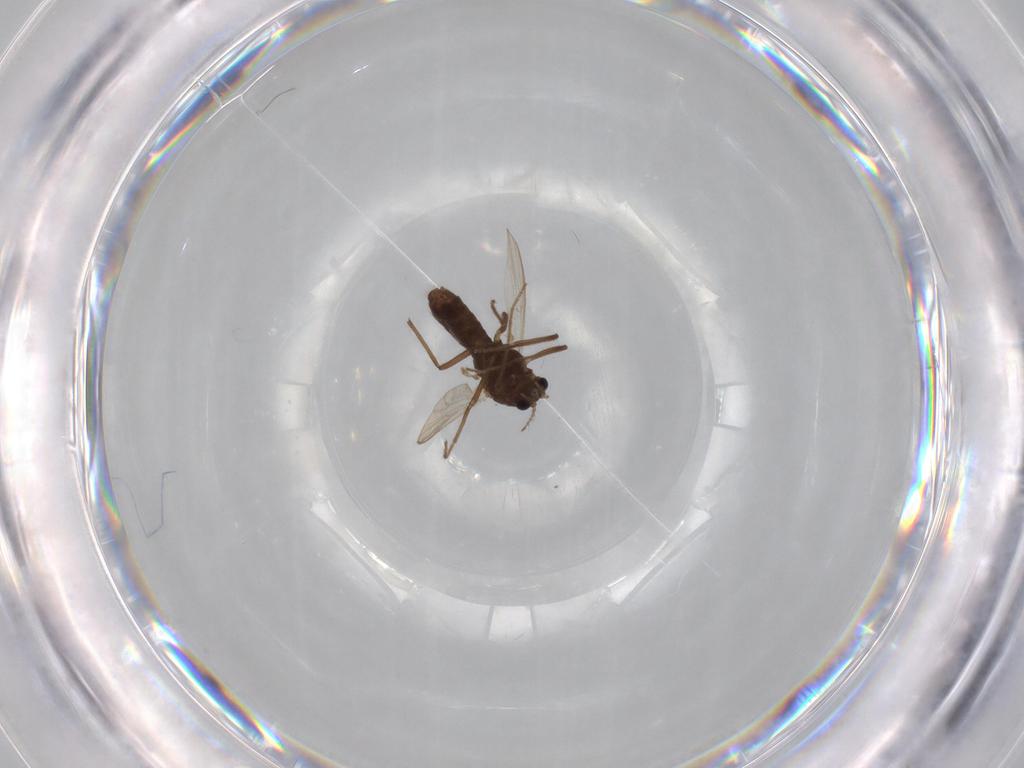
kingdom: Animalia
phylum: Arthropoda
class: Insecta
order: Diptera
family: Chironomidae
